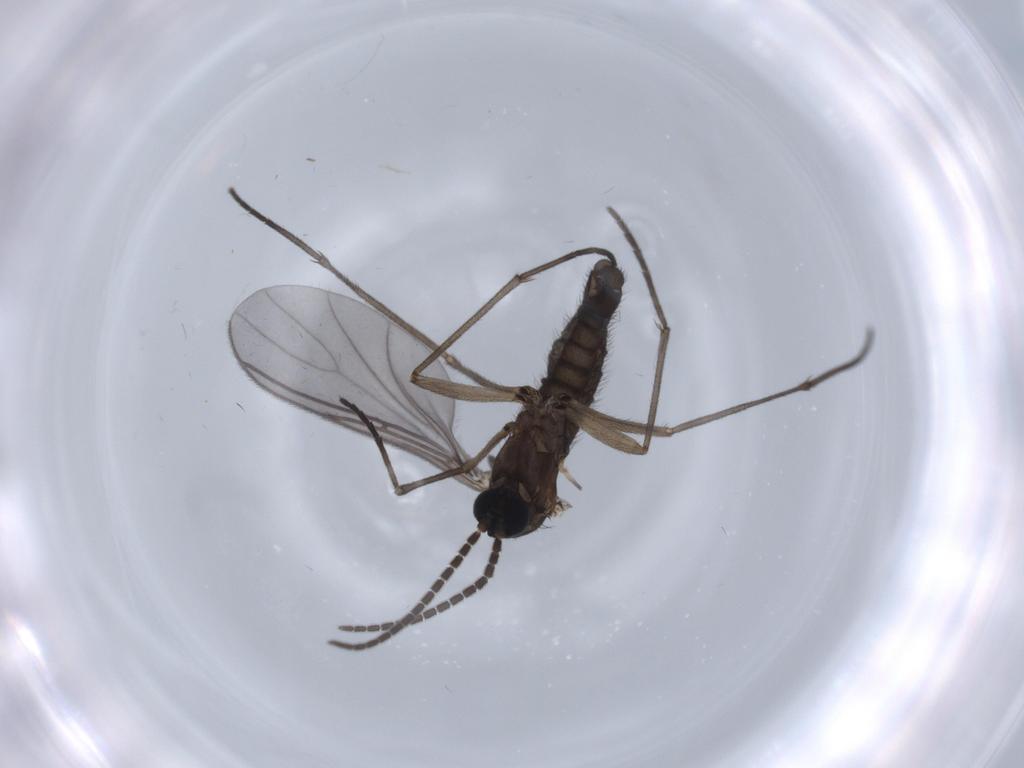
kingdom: Animalia
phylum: Arthropoda
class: Insecta
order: Diptera
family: Sciaridae
